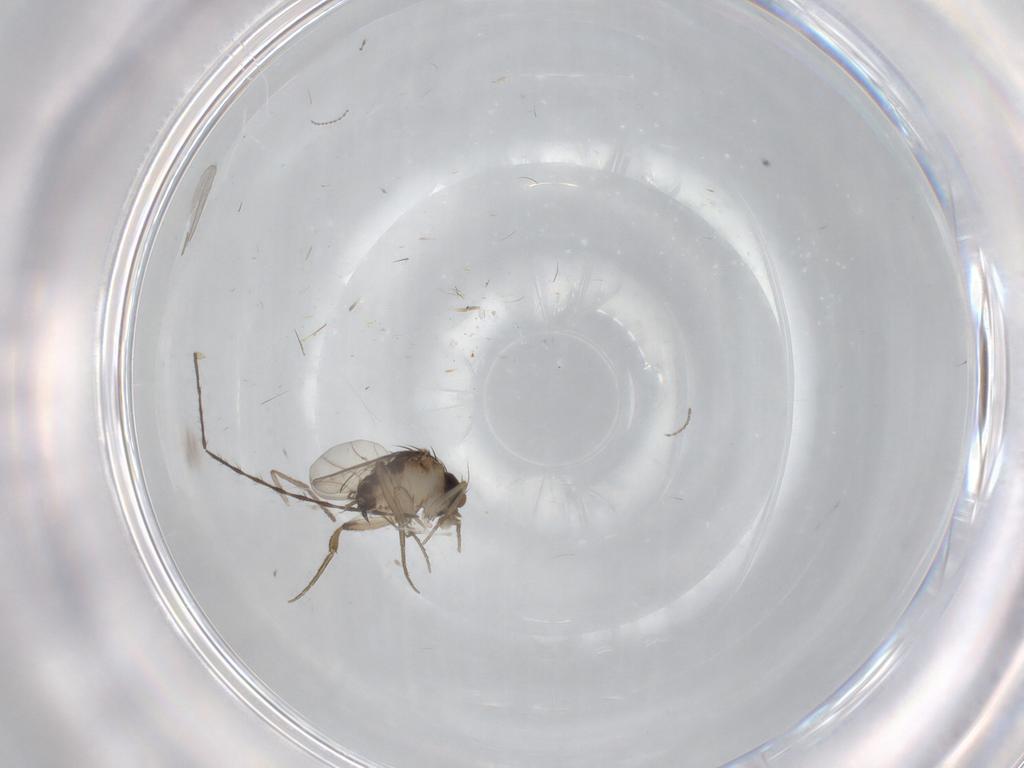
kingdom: Animalia
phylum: Arthropoda
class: Insecta
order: Diptera
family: Phoridae
